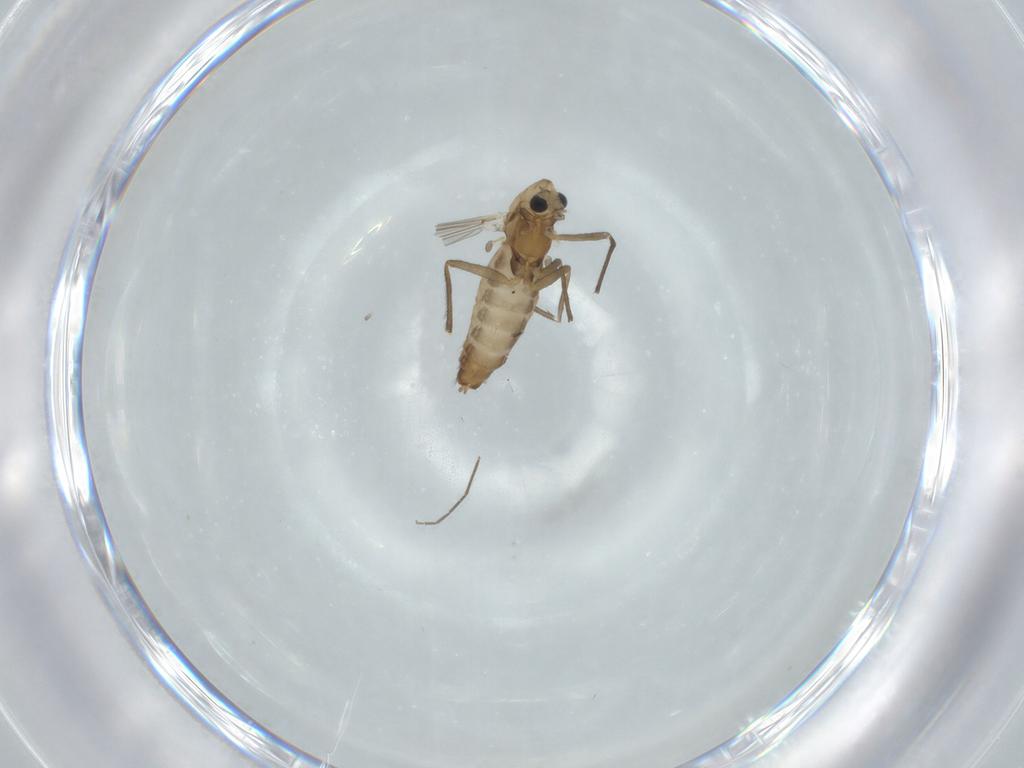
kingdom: Animalia
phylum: Arthropoda
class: Insecta
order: Diptera
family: Chironomidae
